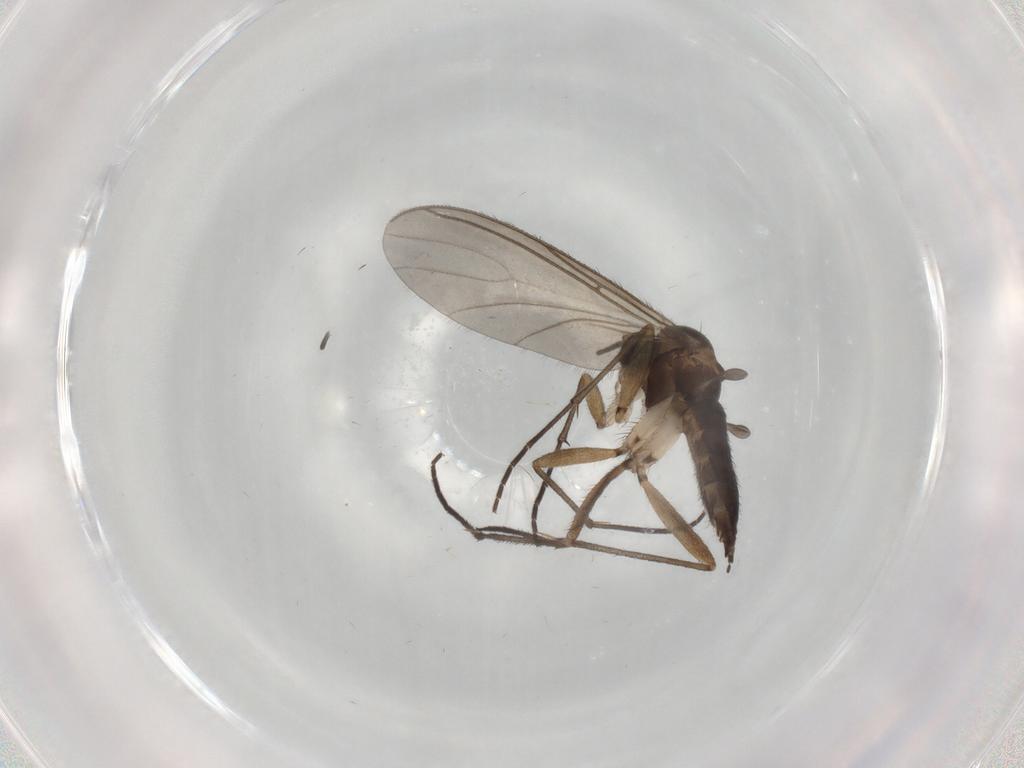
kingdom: Animalia
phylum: Arthropoda
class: Insecta
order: Diptera
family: Sciaridae
